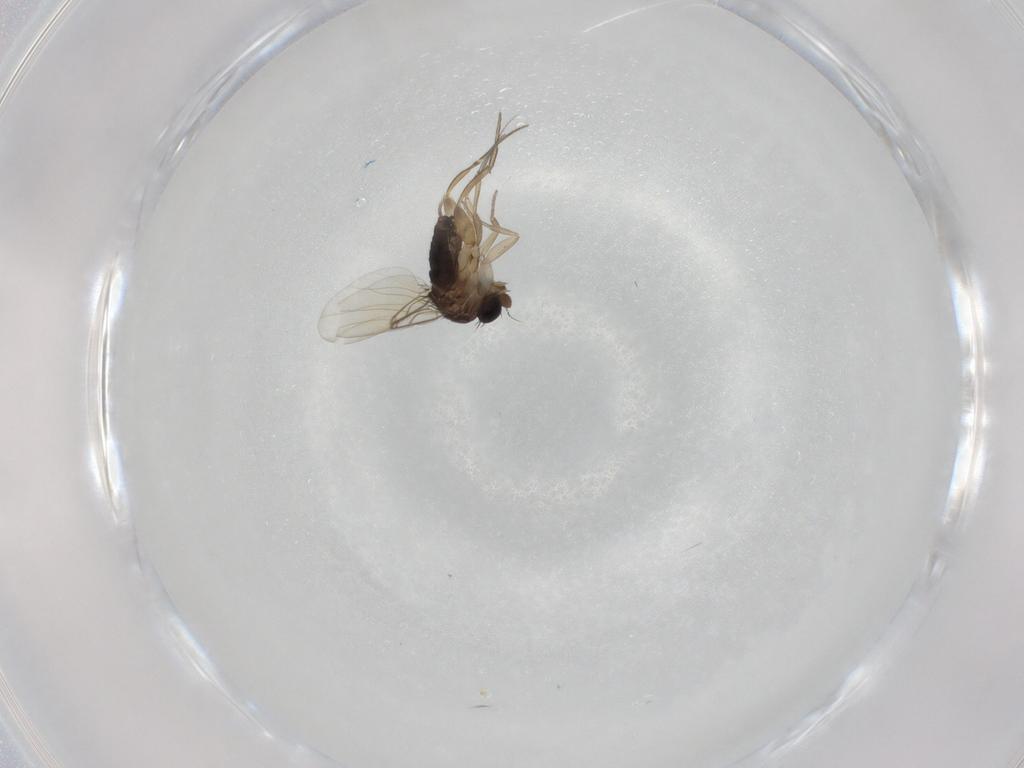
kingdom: Animalia
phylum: Arthropoda
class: Insecta
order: Diptera
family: Phoridae
